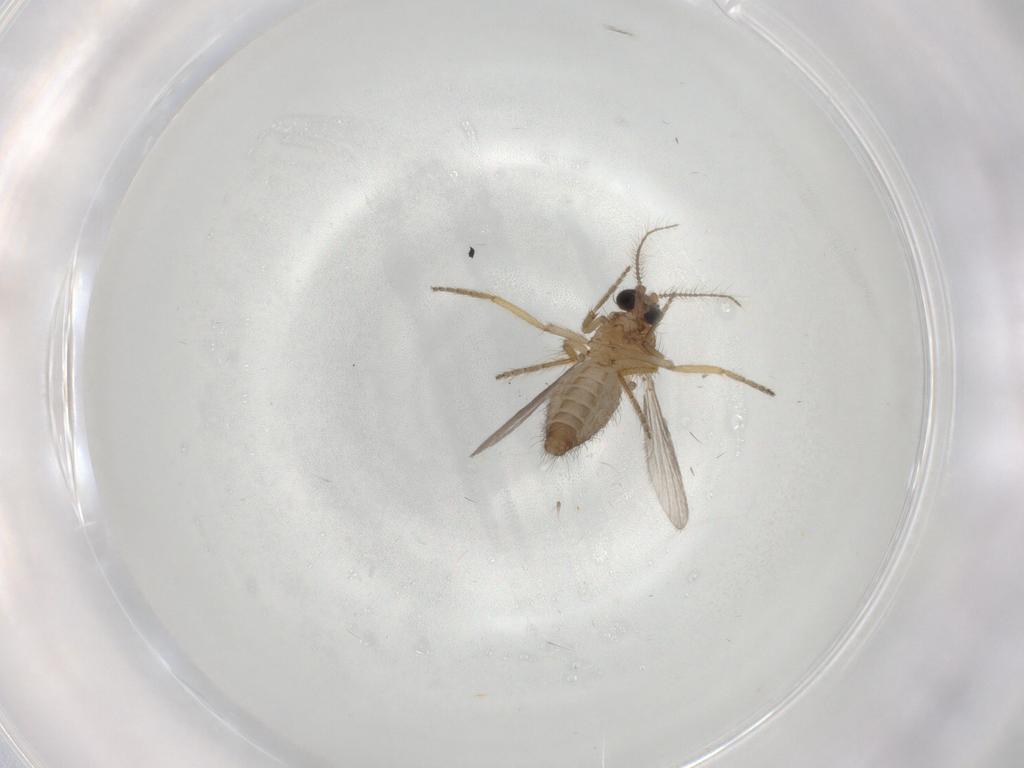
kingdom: Animalia
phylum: Arthropoda
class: Insecta
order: Diptera
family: Ceratopogonidae
